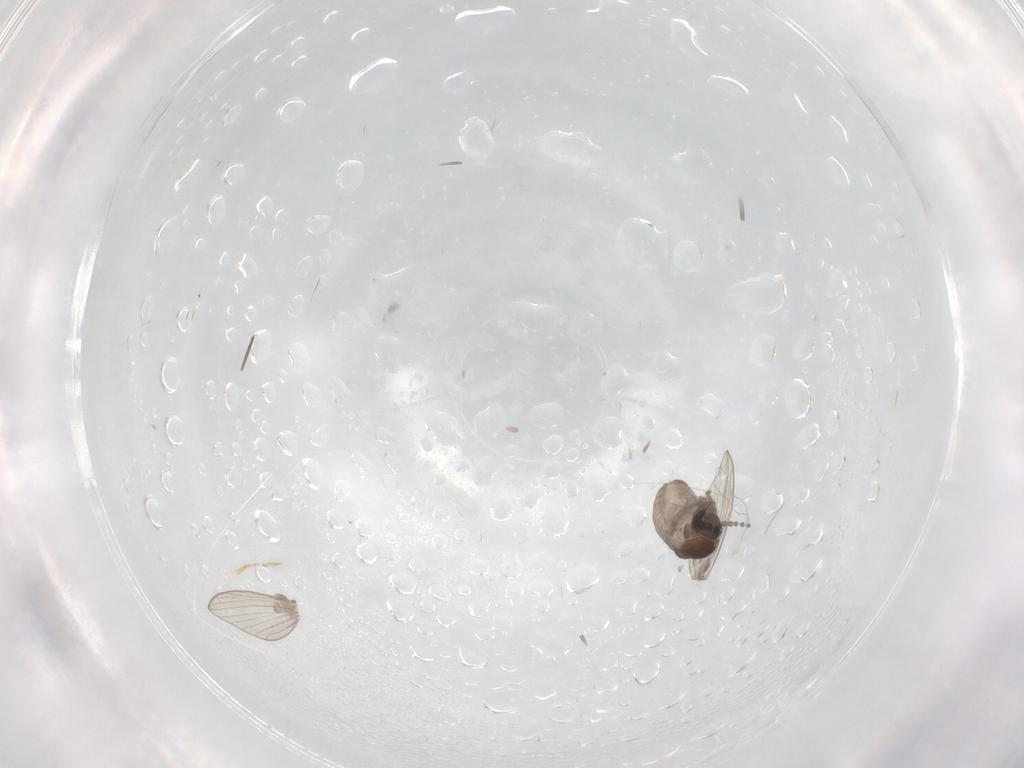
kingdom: Animalia
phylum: Arthropoda
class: Insecta
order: Diptera
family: Psychodidae
